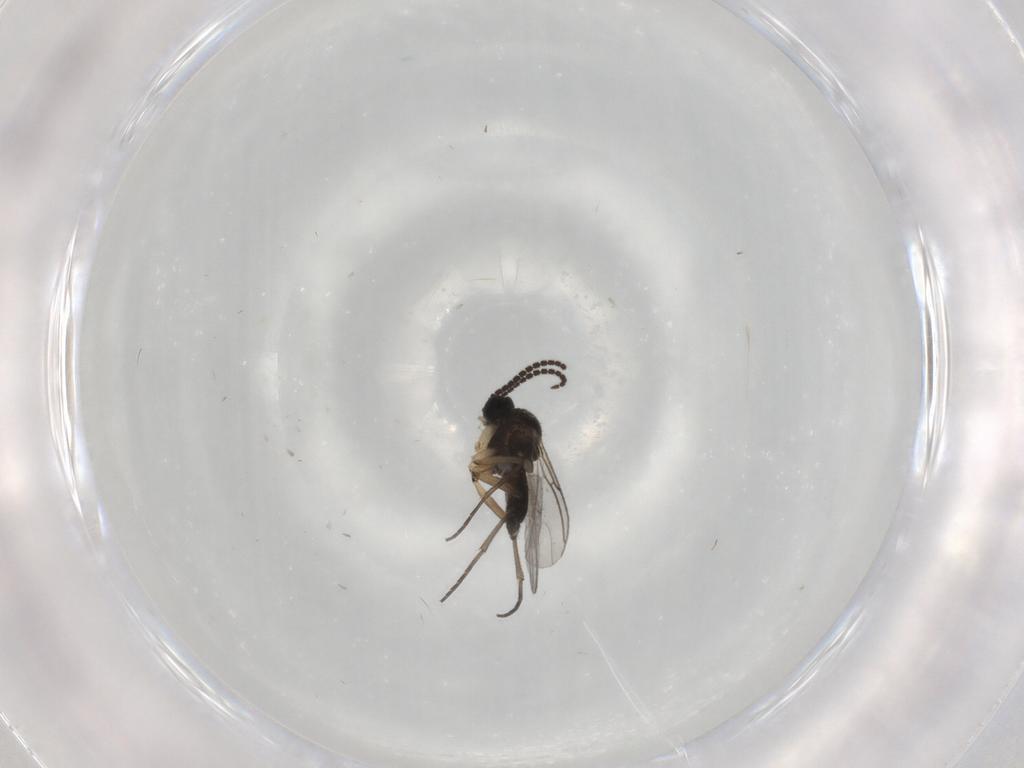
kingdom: Animalia
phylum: Arthropoda
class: Insecta
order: Diptera
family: Sciaridae
